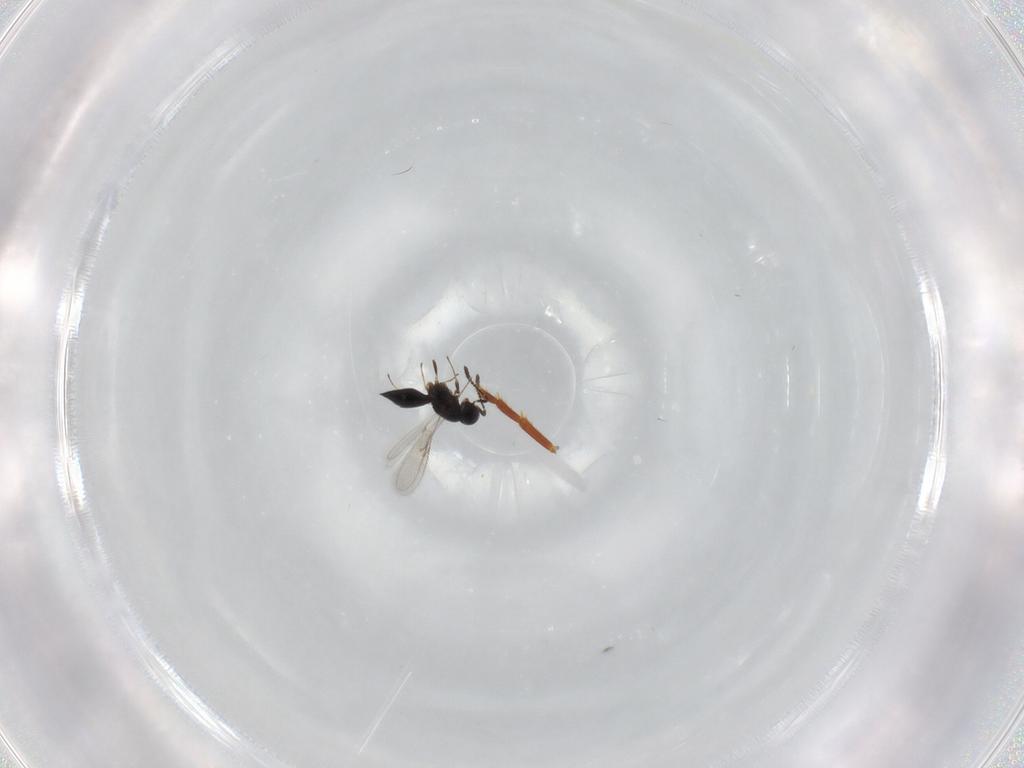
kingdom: Animalia
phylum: Arthropoda
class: Insecta
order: Hymenoptera
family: Scelionidae
